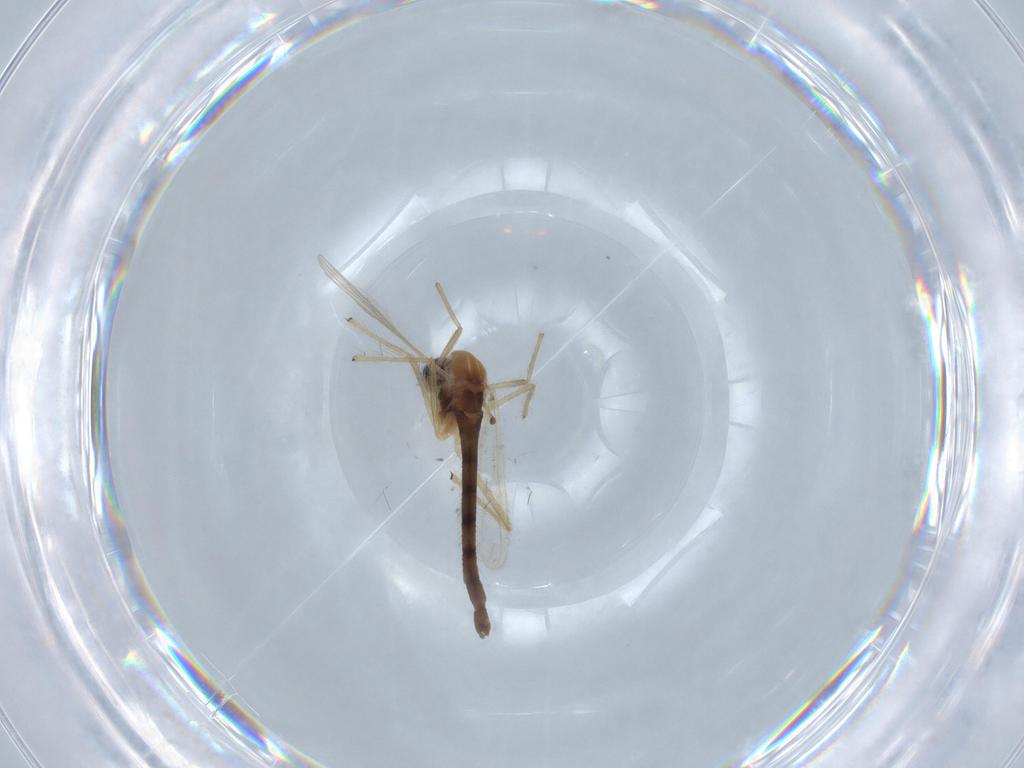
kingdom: Animalia
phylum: Arthropoda
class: Insecta
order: Diptera
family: Chironomidae
